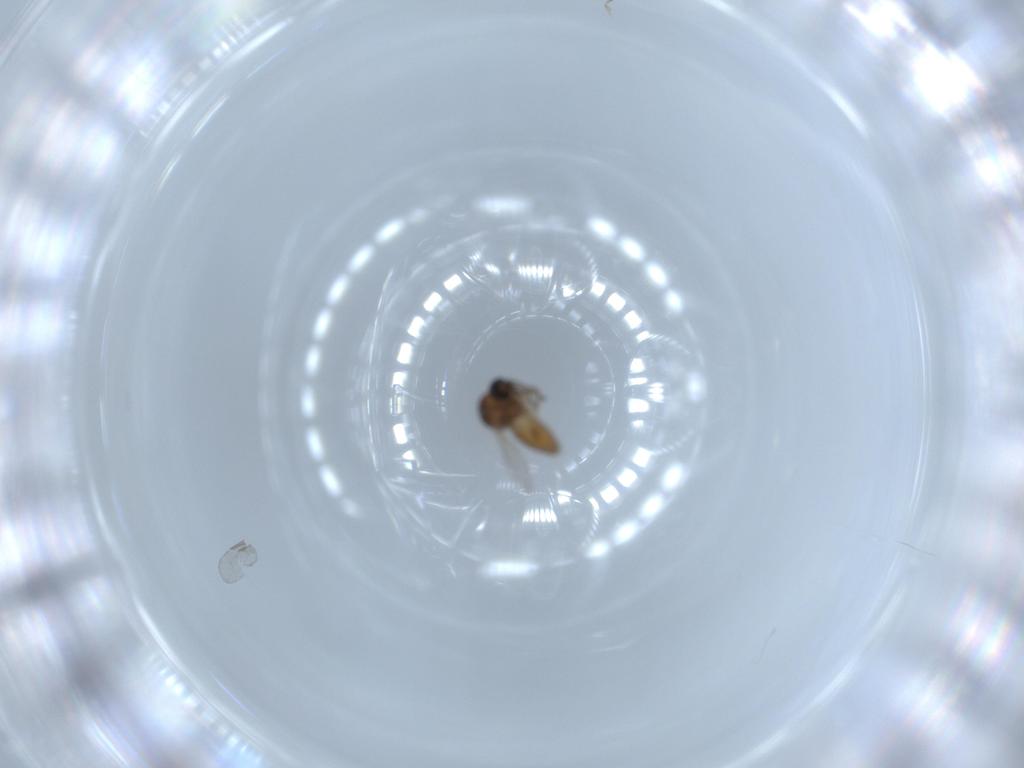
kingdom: Animalia
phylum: Arthropoda
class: Insecta
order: Diptera
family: Ceratopogonidae
